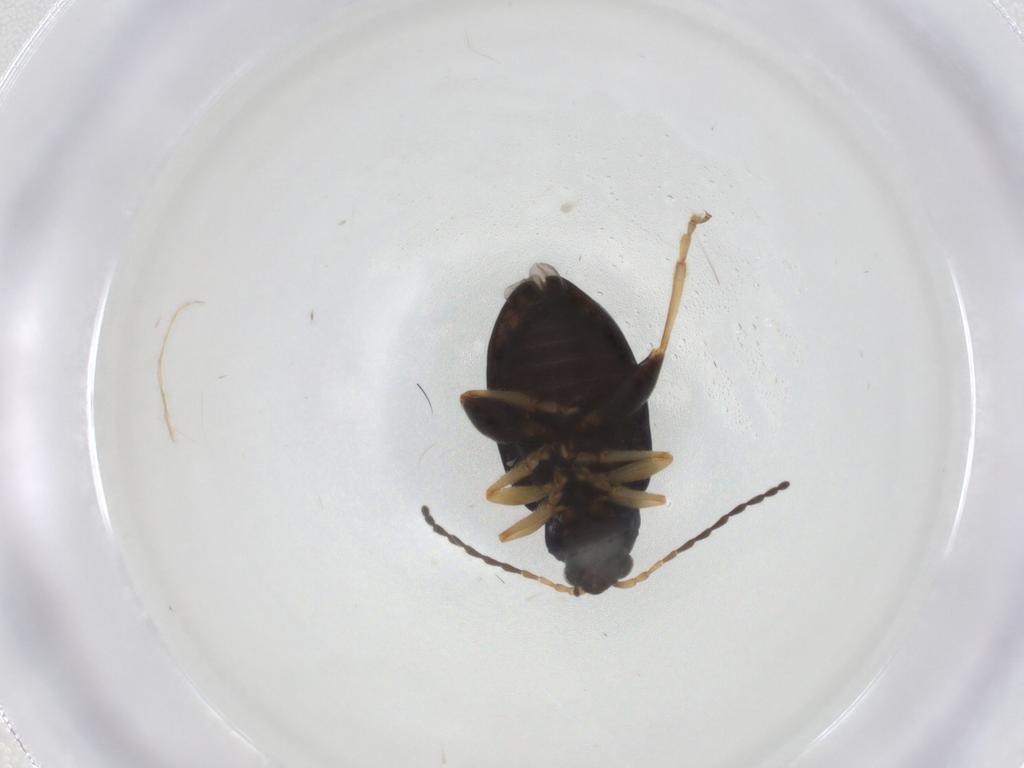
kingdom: Animalia
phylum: Arthropoda
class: Insecta
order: Coleoptera
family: Chrysomelidae
